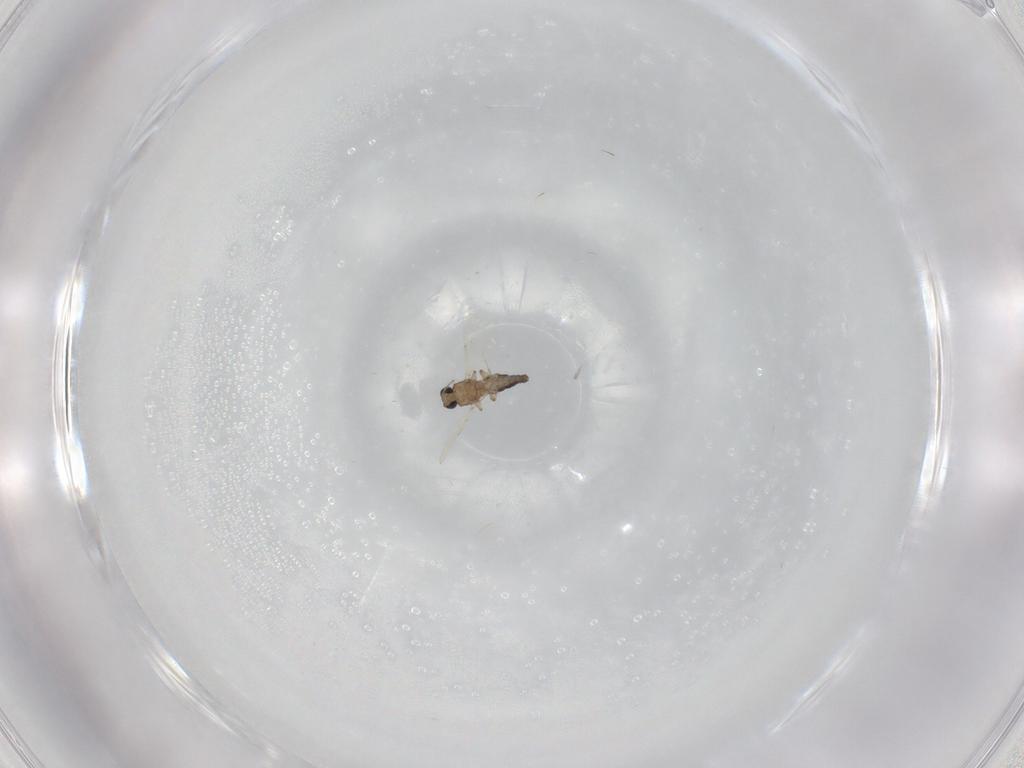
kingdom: Animalia
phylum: Arthropoda
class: Insecta
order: Diptera
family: Ceratopogonidae
